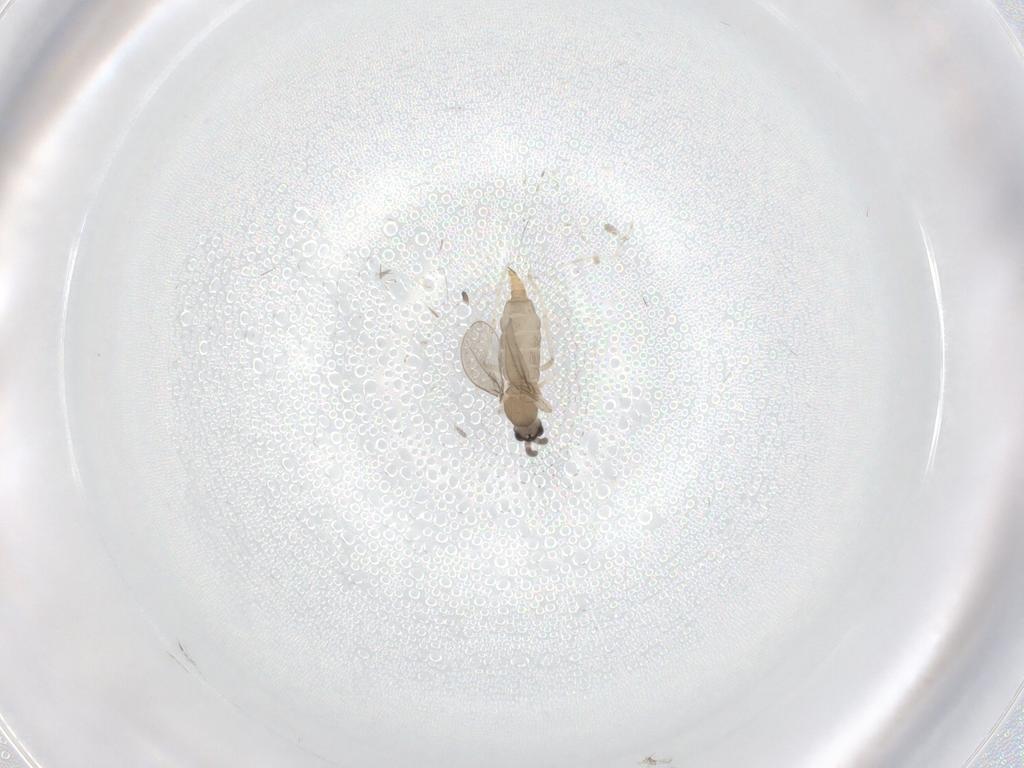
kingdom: Animalia
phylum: Arthropoda
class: Insecta
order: Diptera
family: Cecidomyiidae
